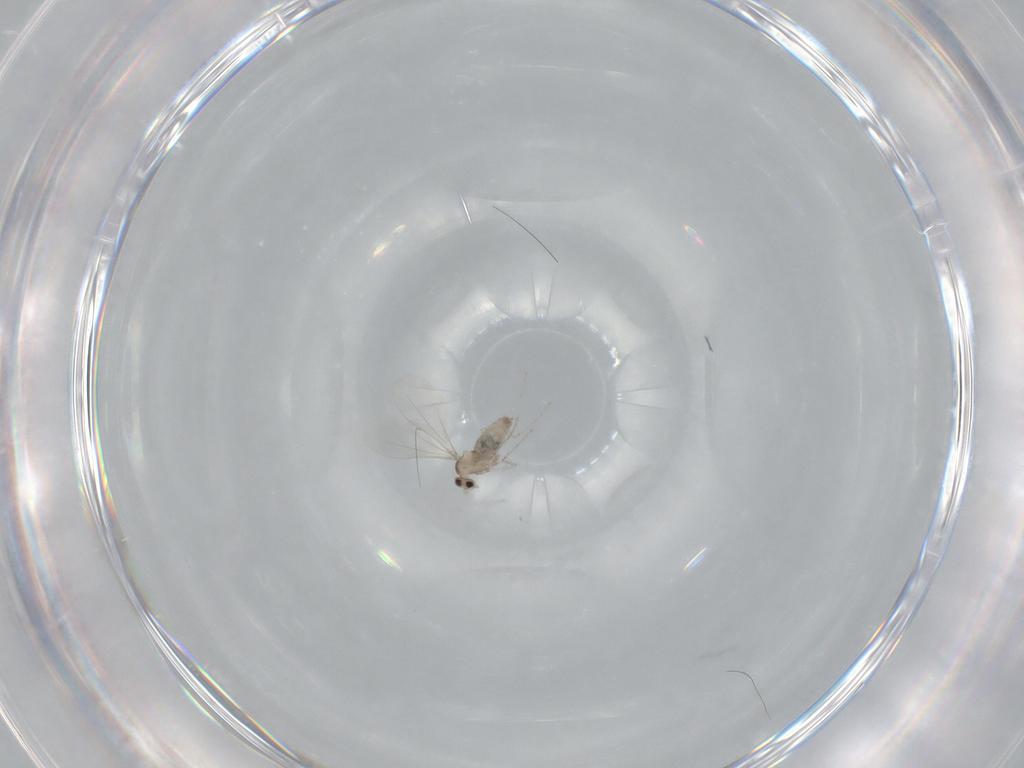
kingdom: Animalia
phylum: Arthropoda
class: Insecta
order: Diptera
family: Cecidomyiidae
